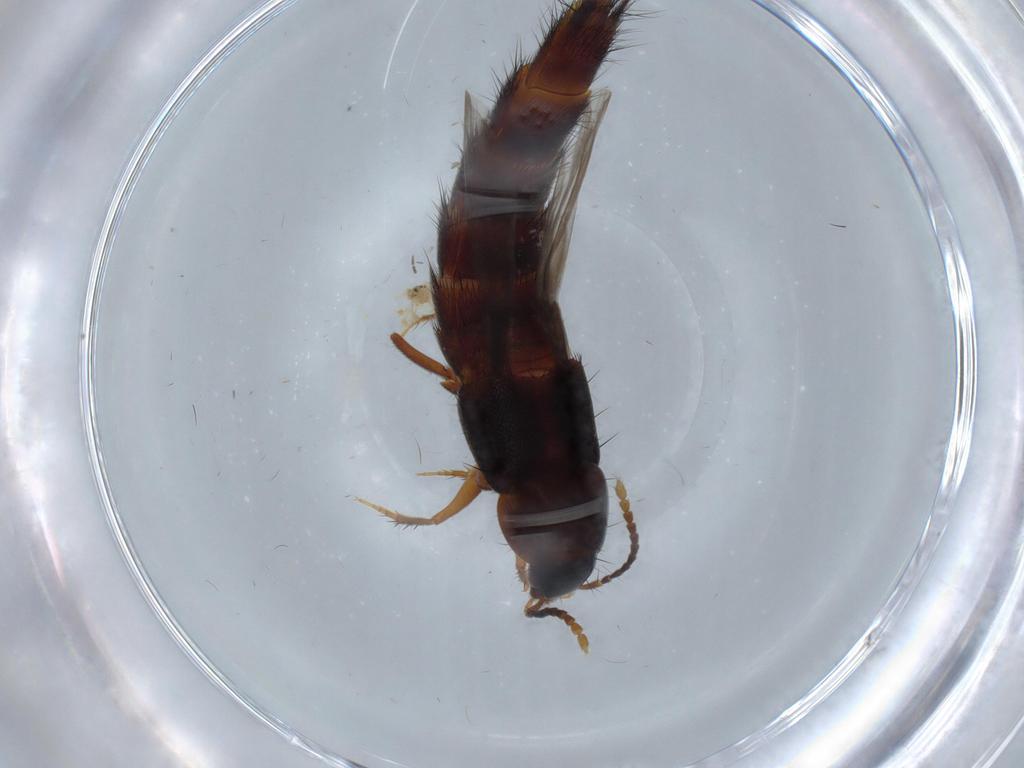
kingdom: Animalia
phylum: Arthropoda
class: Insecta
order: Coleoptera
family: Staphylinidae
